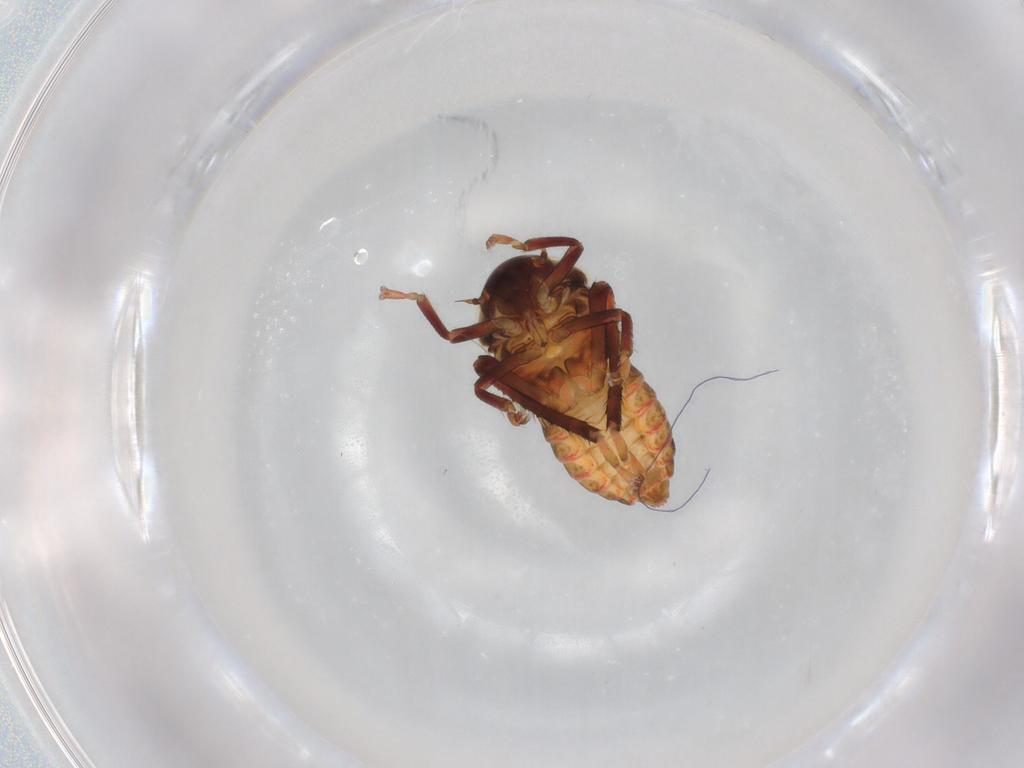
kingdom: Animalia
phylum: Arthropoda
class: Insecta
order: Hemiptera
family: Cicadellidae
